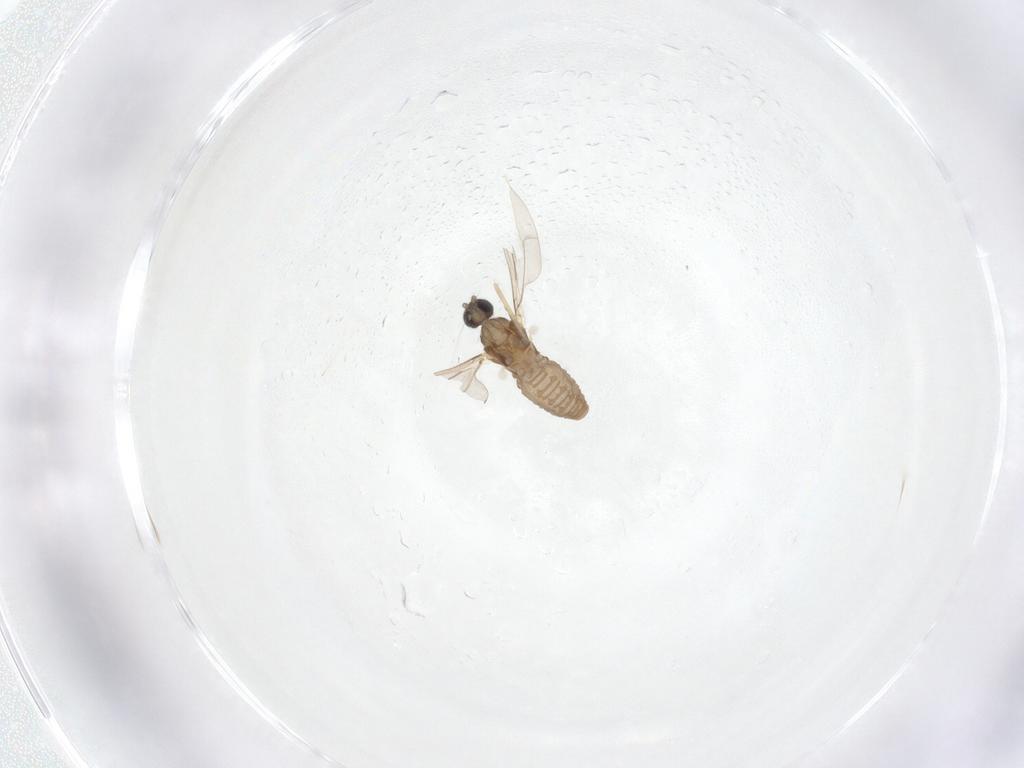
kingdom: Animalia
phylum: Arthropoda
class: Insecta
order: Diptera
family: Cecidomyiidae
